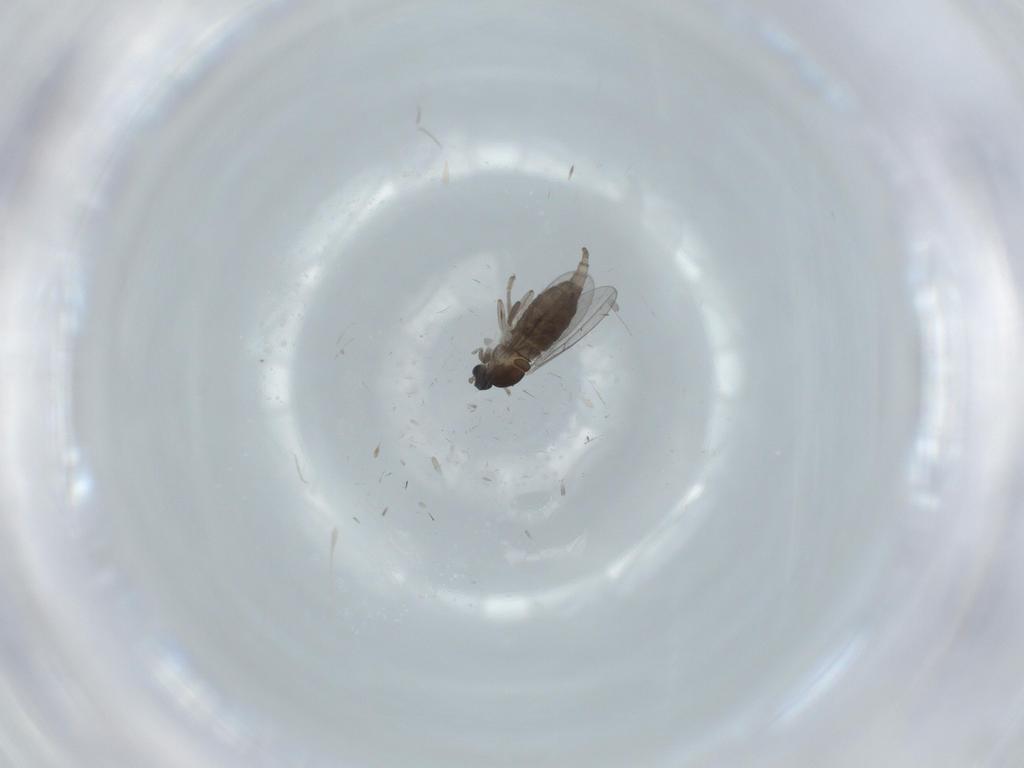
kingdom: Animalia
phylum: Arthropoda
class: Insecta
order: Diptera
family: Cecidomyiidae
